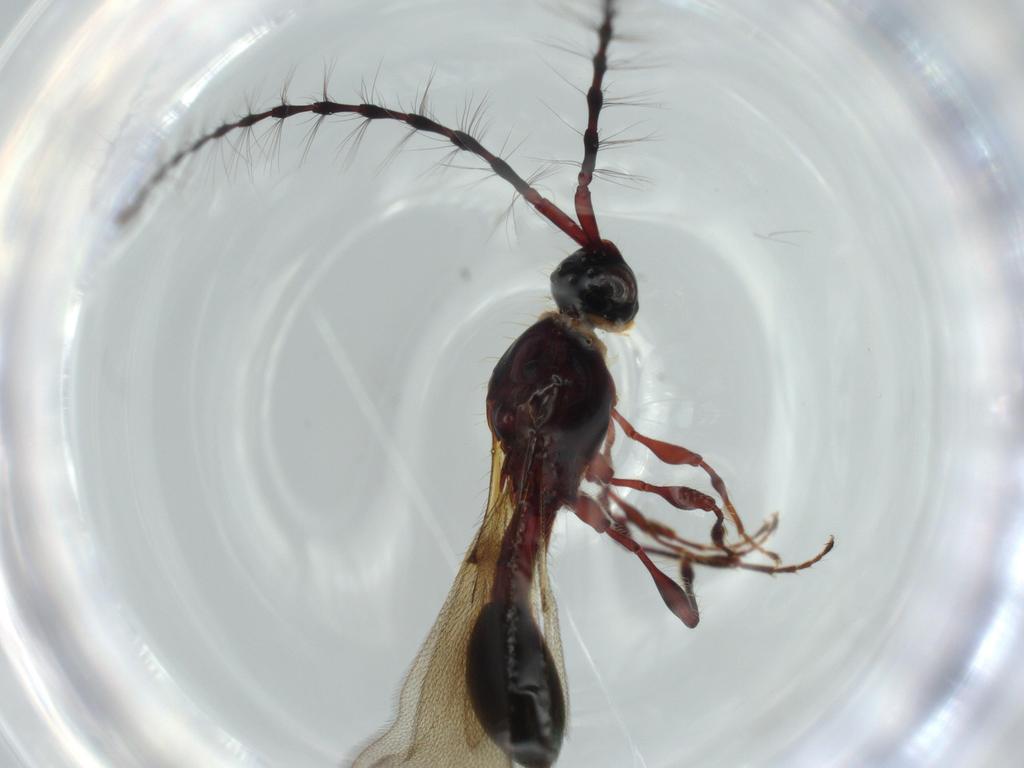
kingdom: Animalia
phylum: Arthropoda
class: Insecta
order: Hymenoptera
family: Diapriidae
